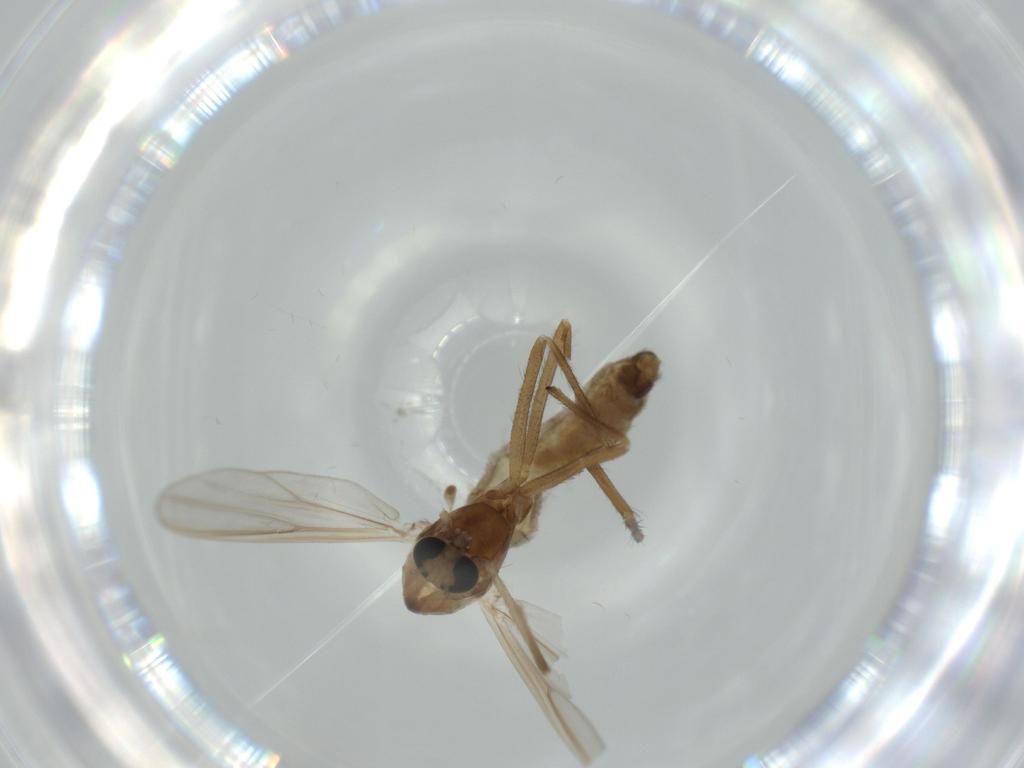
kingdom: Animalia
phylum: Arthropoda
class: Insecta
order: Diptera
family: Chironomidae
